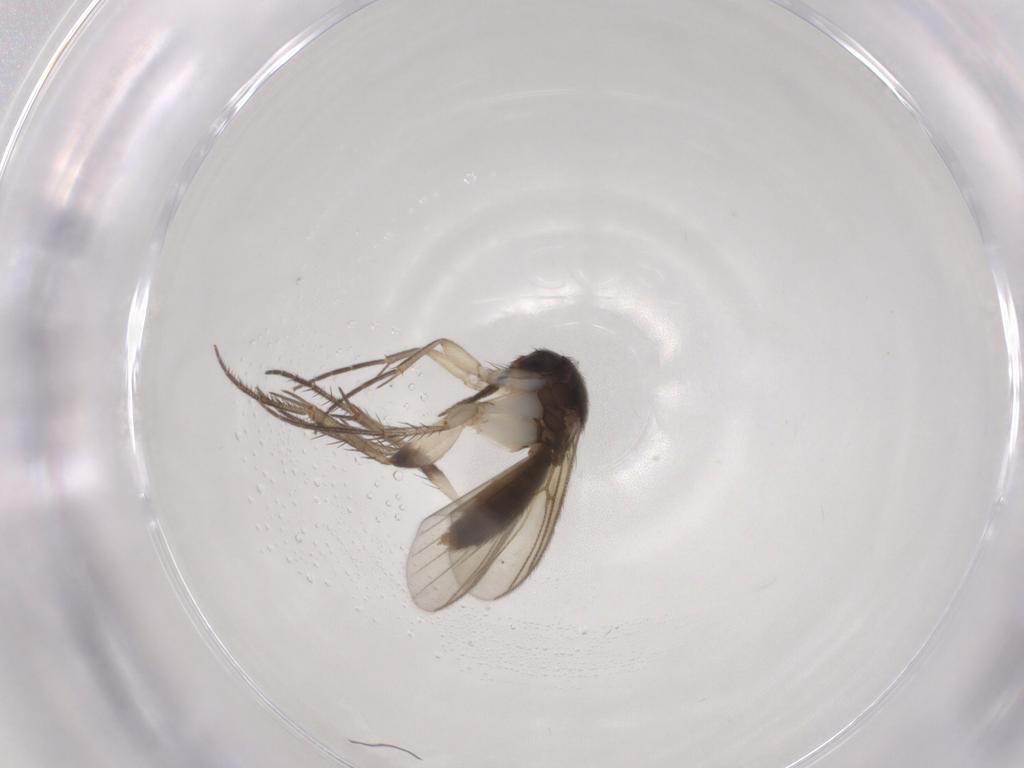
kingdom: Animalia
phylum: Arthropoda
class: Insecta
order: Diptera
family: Mycetophilidae
